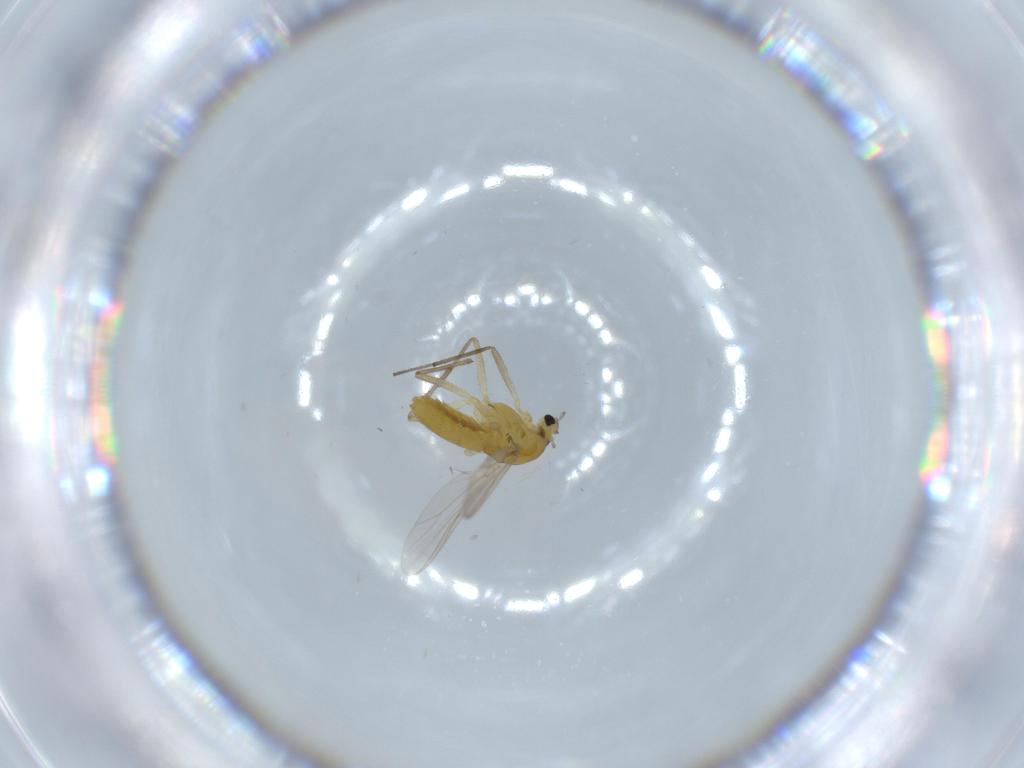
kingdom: Animalia
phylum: Arthropoda
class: Insecta
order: Diptera
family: Chironomidae
